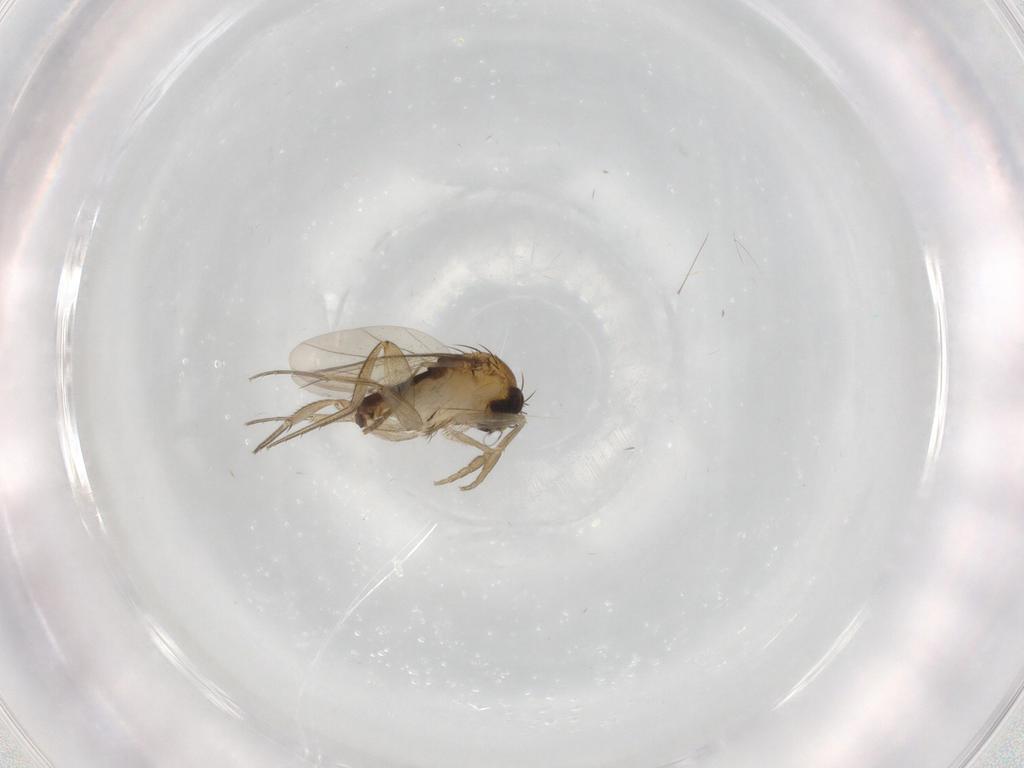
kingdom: Animalia
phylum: Arthropoda
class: Insecta
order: Diptera
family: Phoridae
